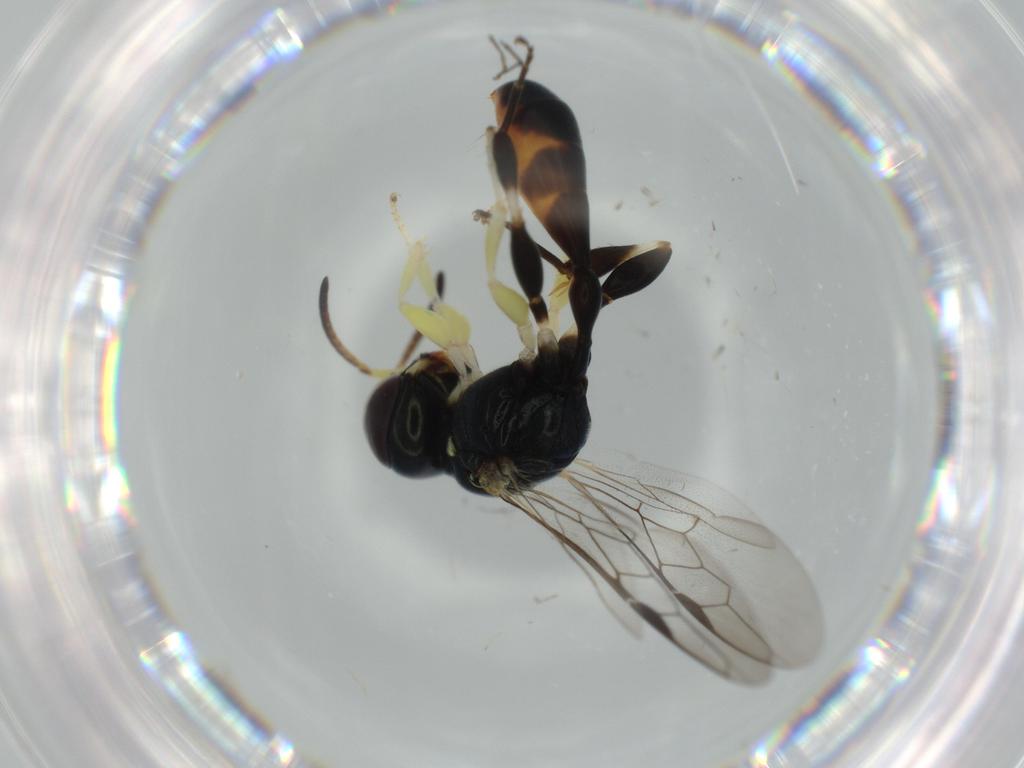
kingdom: Animalia
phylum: Arthropoda
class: Insecta
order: Hymenoptera
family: Crabronidae
